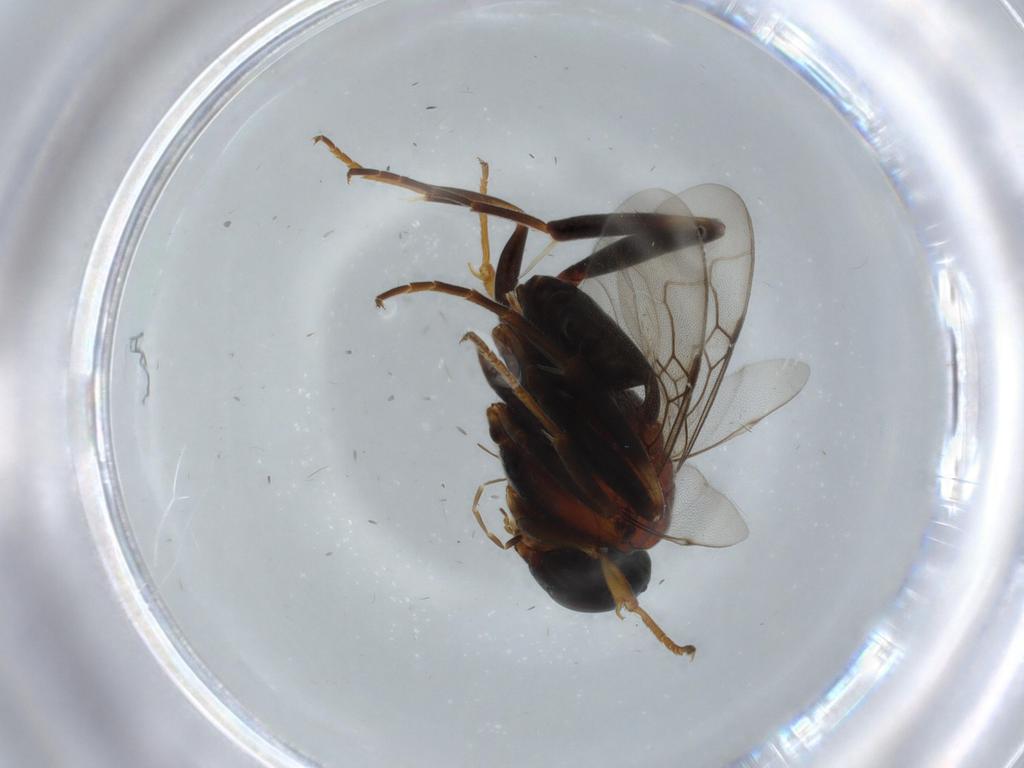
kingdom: Animalia
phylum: Arthropoda
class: Insecta
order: Hymenoptera
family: Evaniidae
